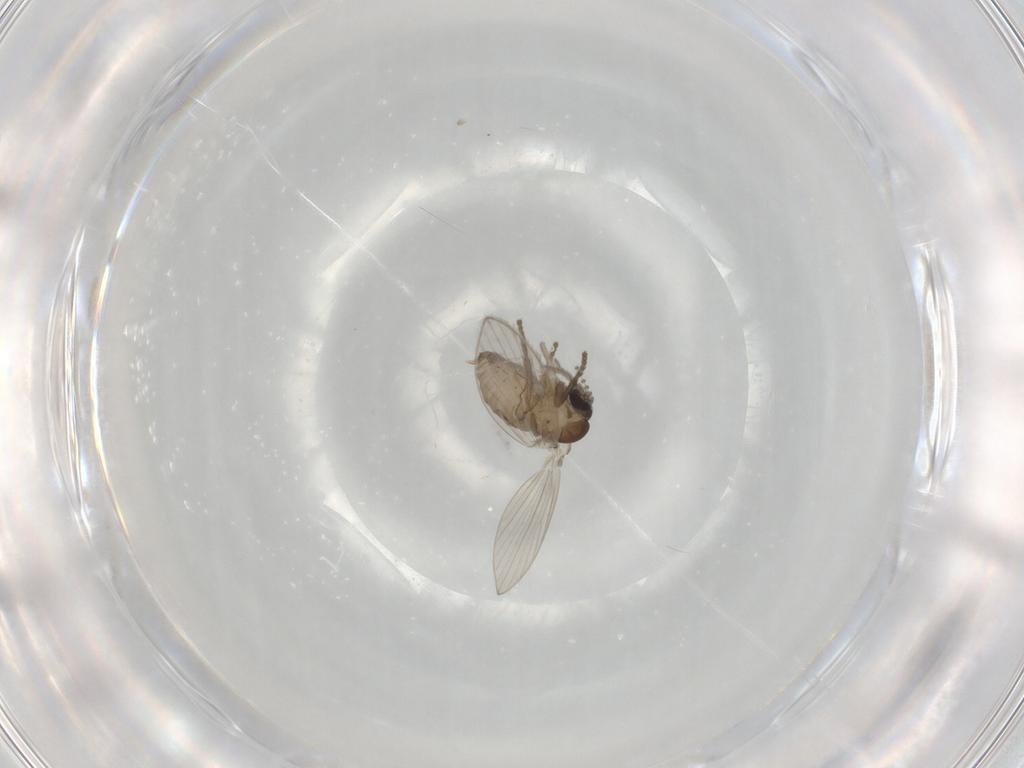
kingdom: Animalia
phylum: Arthropoda
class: Insecta
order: Diptera
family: Psychodidae
